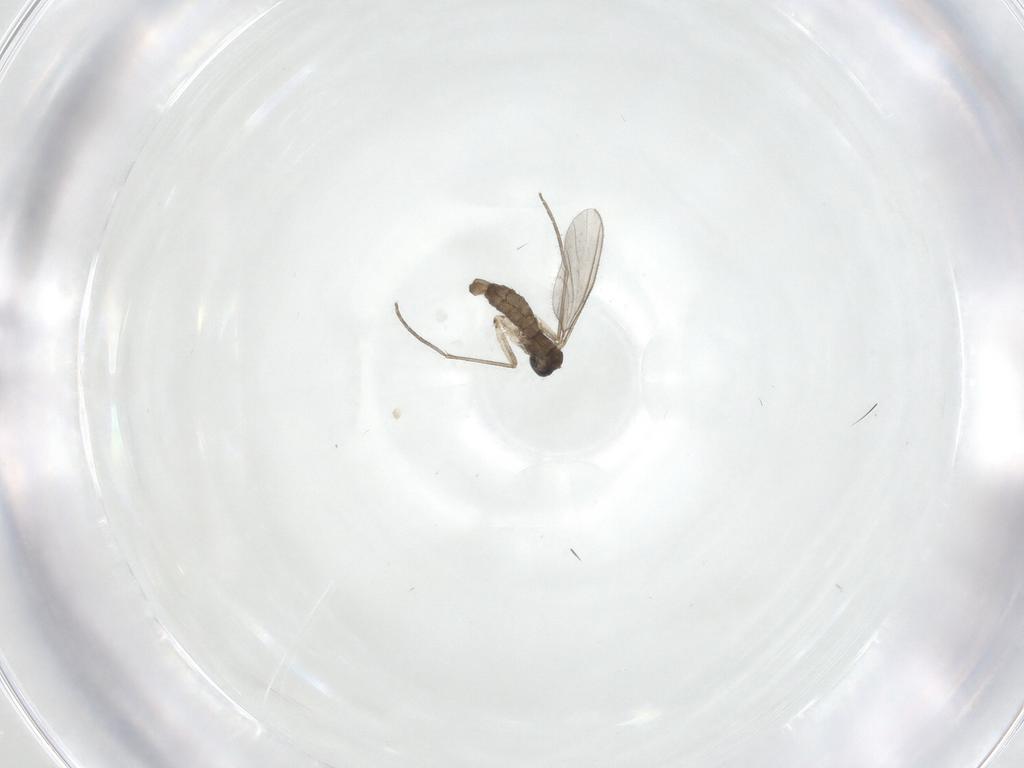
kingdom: Animalia
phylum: Arthropoda
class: Insecta
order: Diptera
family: Sciaridae
